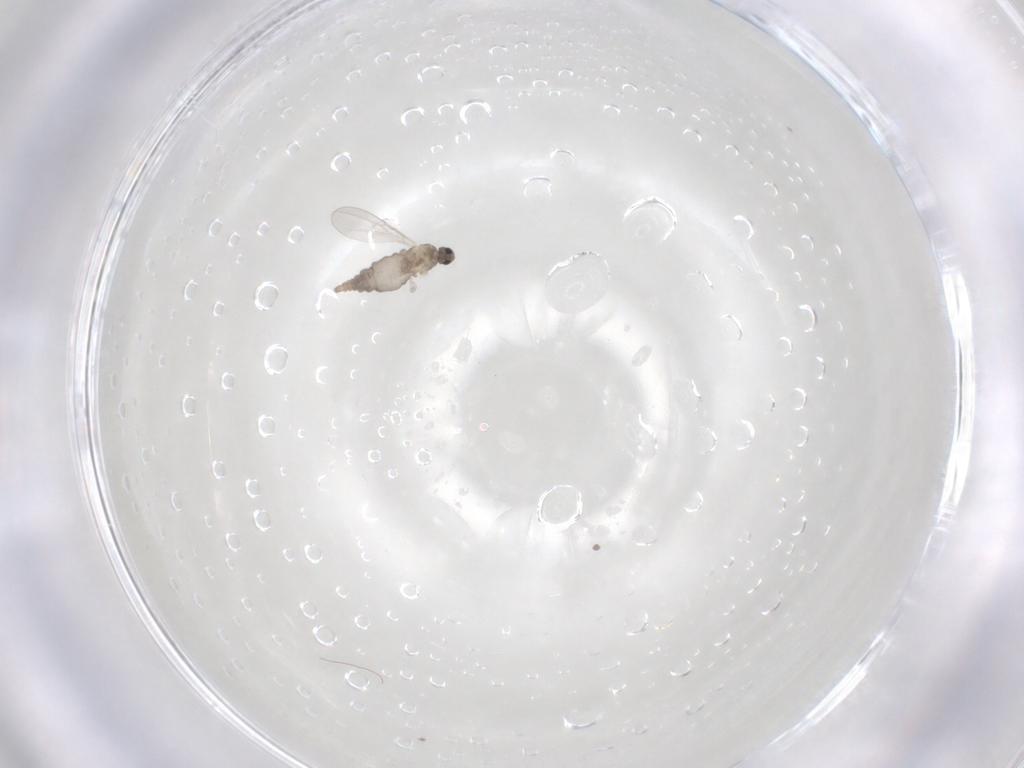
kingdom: Animalia
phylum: Arthropoda
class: Insecta
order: Diptera
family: Cecidomyiidae
